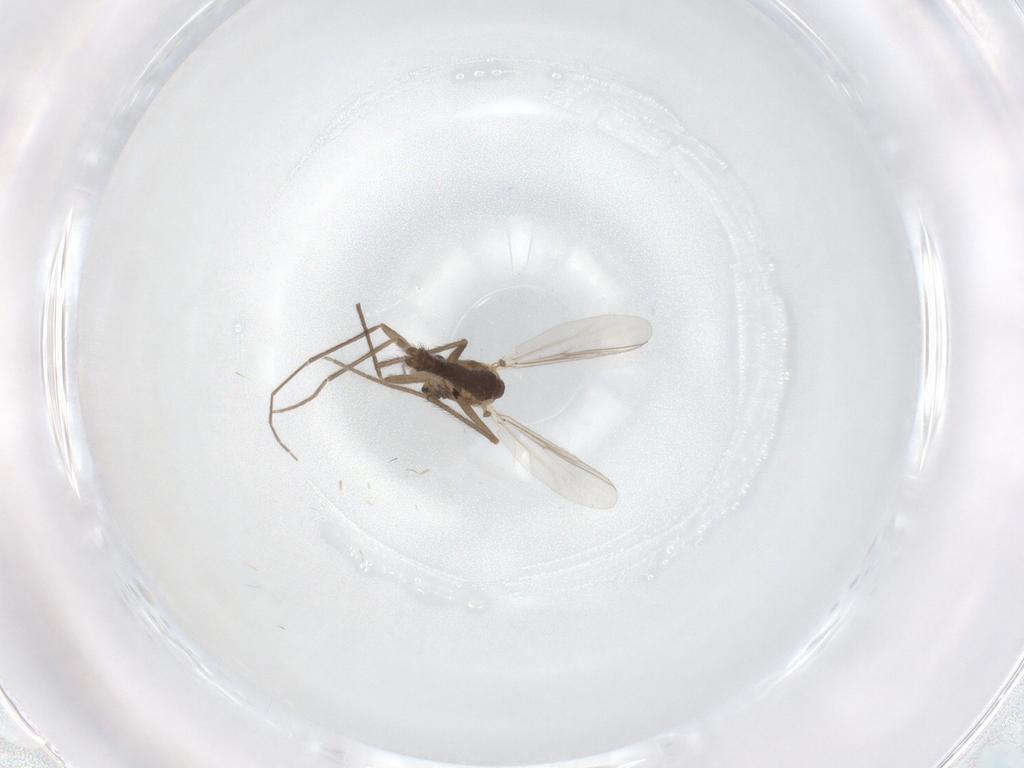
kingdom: Animalia
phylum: Arthropoda
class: Insecta
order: Diptera
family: Chironomidae
